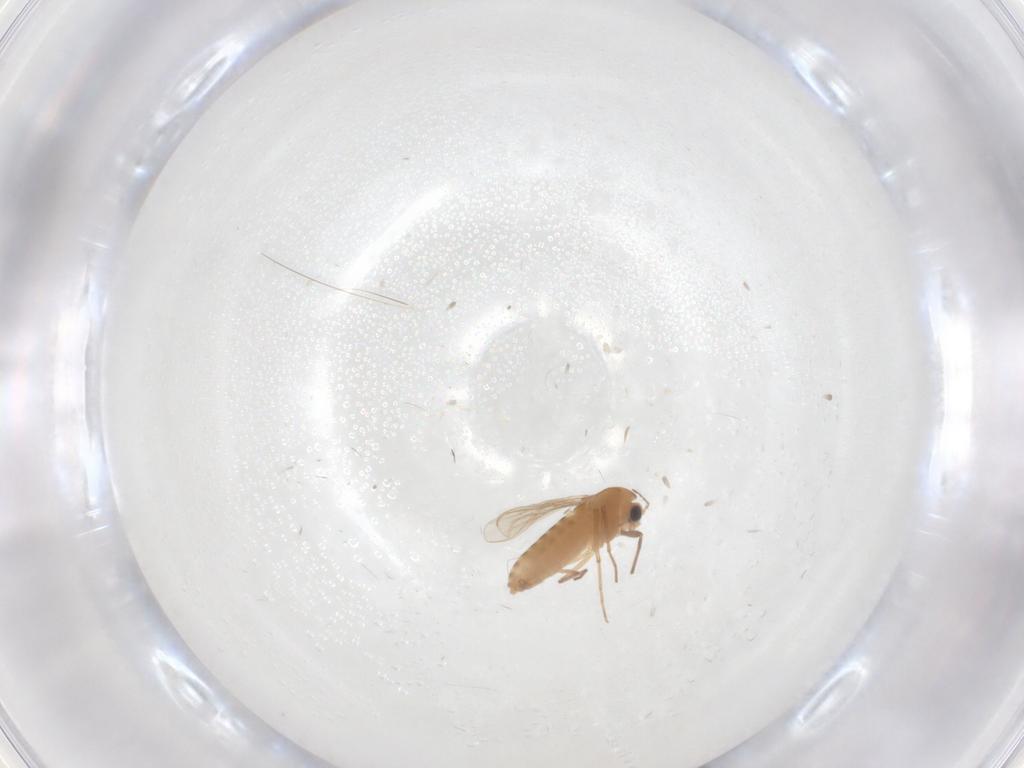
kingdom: Animalia
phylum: Arthropoda
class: Insecta
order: Diptera
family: Chironomidae
